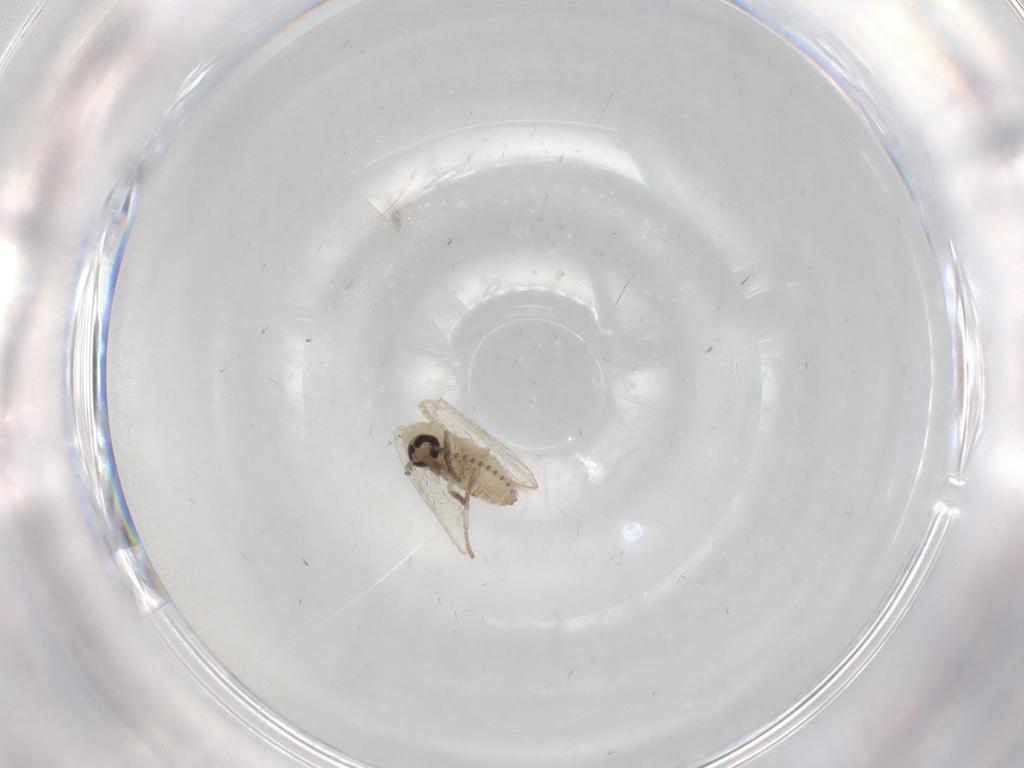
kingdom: Animalia
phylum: Arthropoda
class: Insecta
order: Diptera
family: Psychodidae
